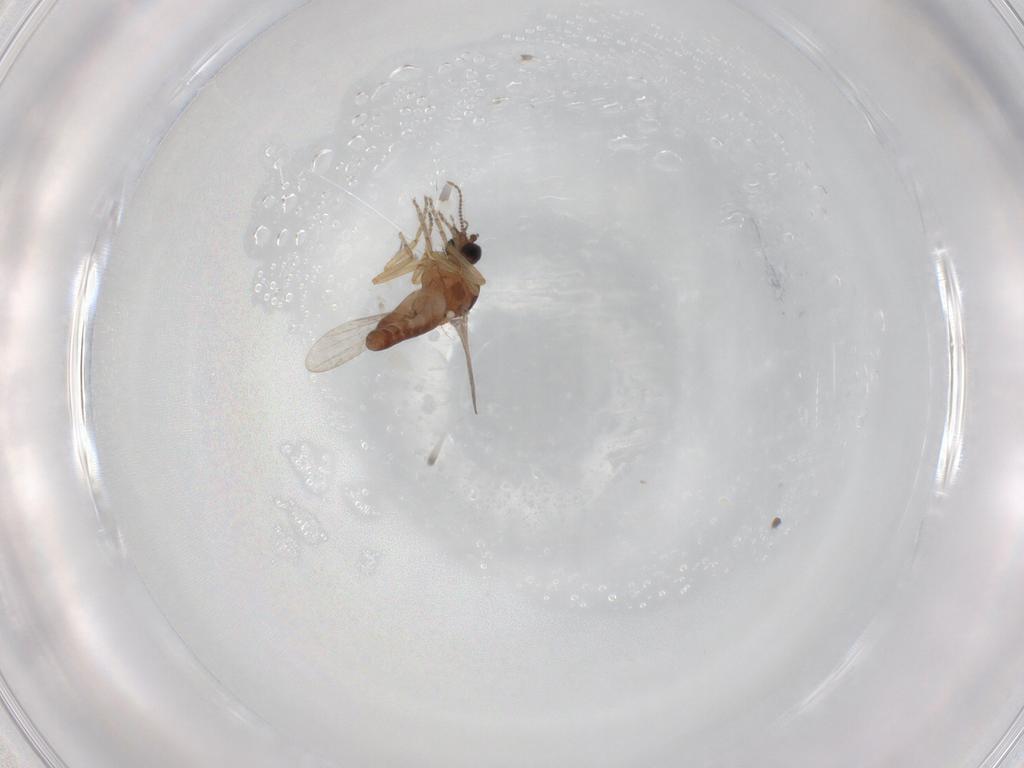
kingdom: Animalia
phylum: Arthropoda
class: Insecta
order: Diptera
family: Ceratopogonidae
